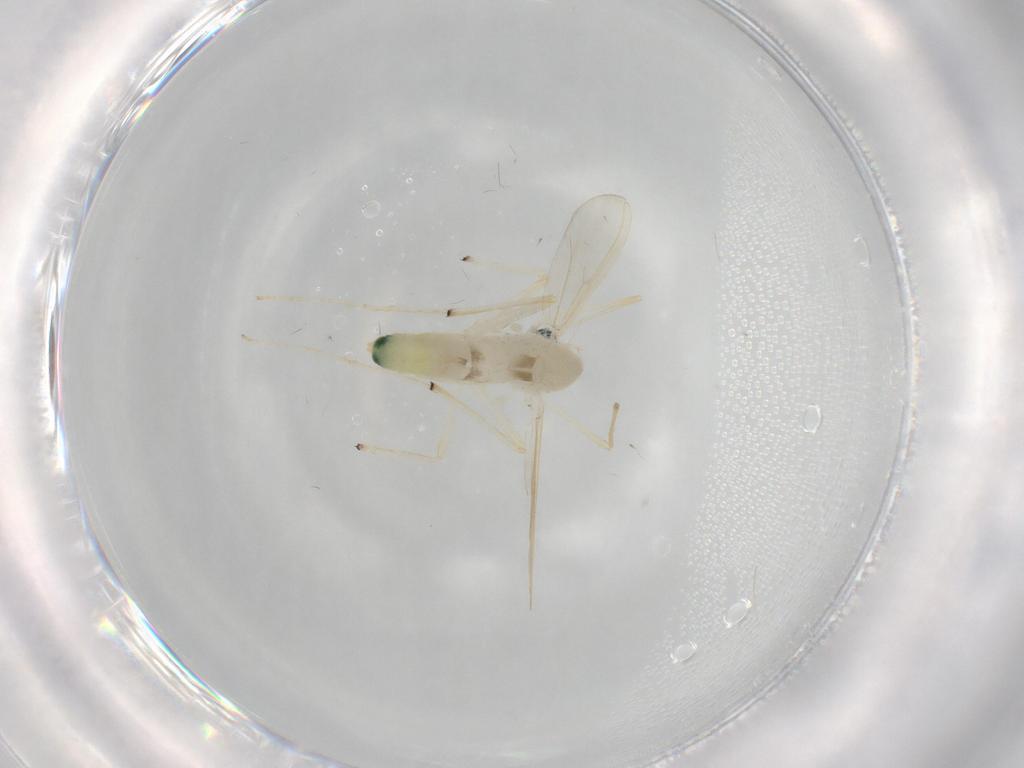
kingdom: Animalia
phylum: Arthropoda
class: Insecta
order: Diptera
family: Chironomidae
